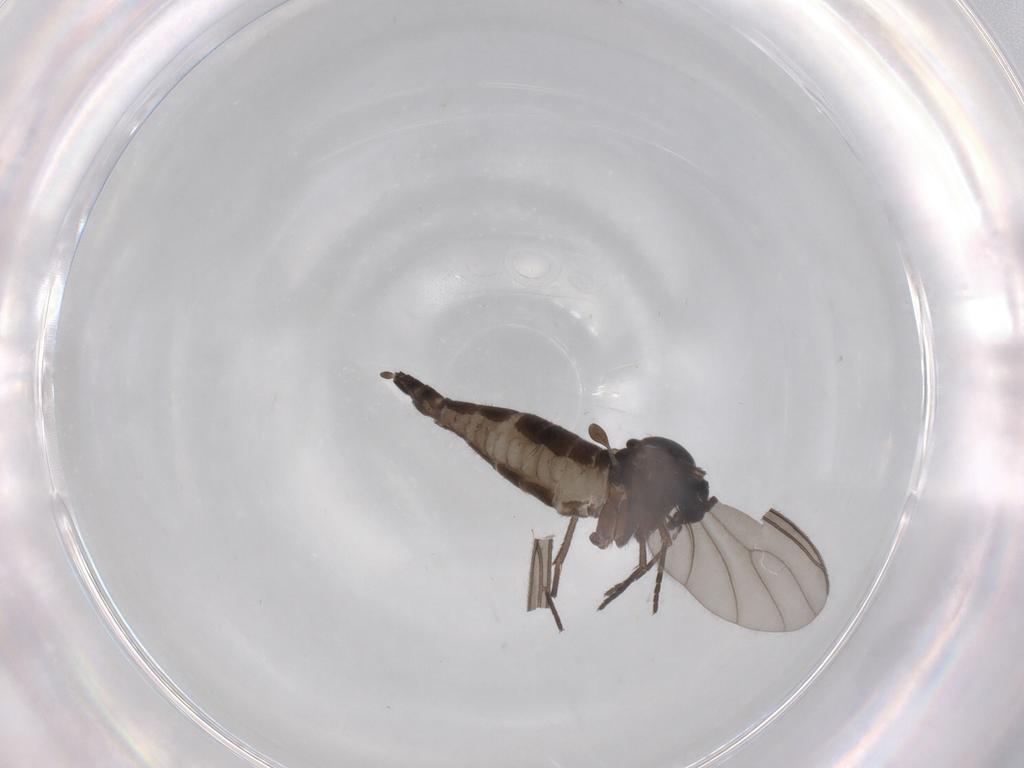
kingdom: Animalia
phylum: Arthropoda
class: Insecta
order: Diptera
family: Sciaridae
